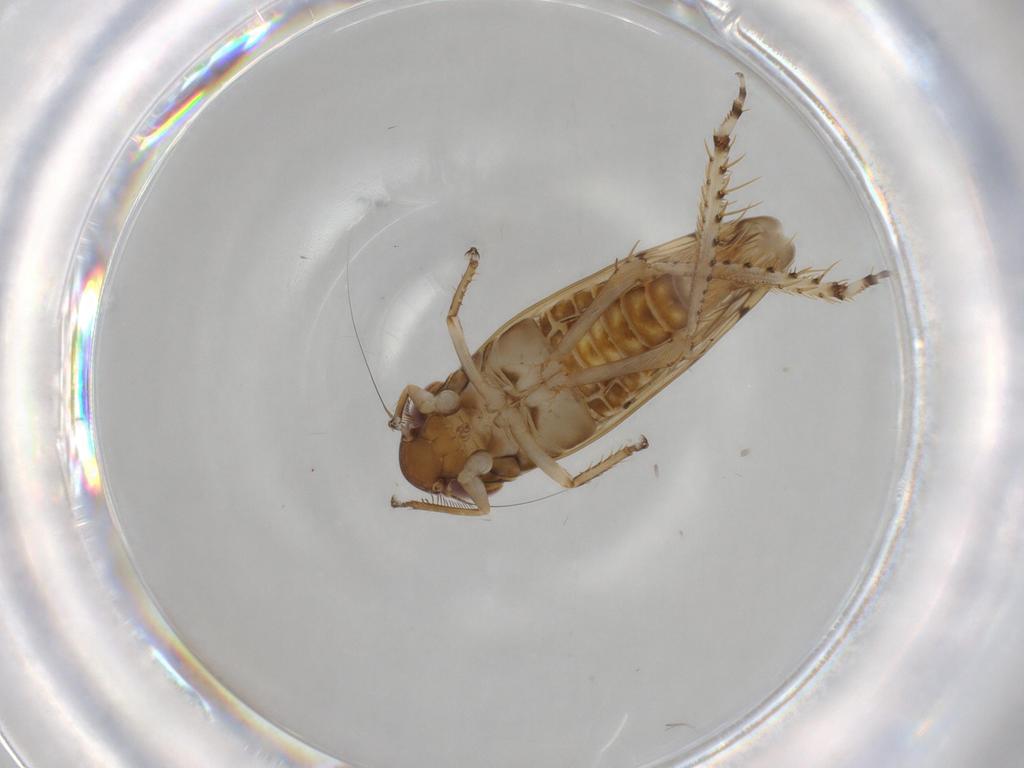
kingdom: Animalia
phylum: Arthropoda
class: Insecta
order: Hemiptera
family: Cicadellidae
